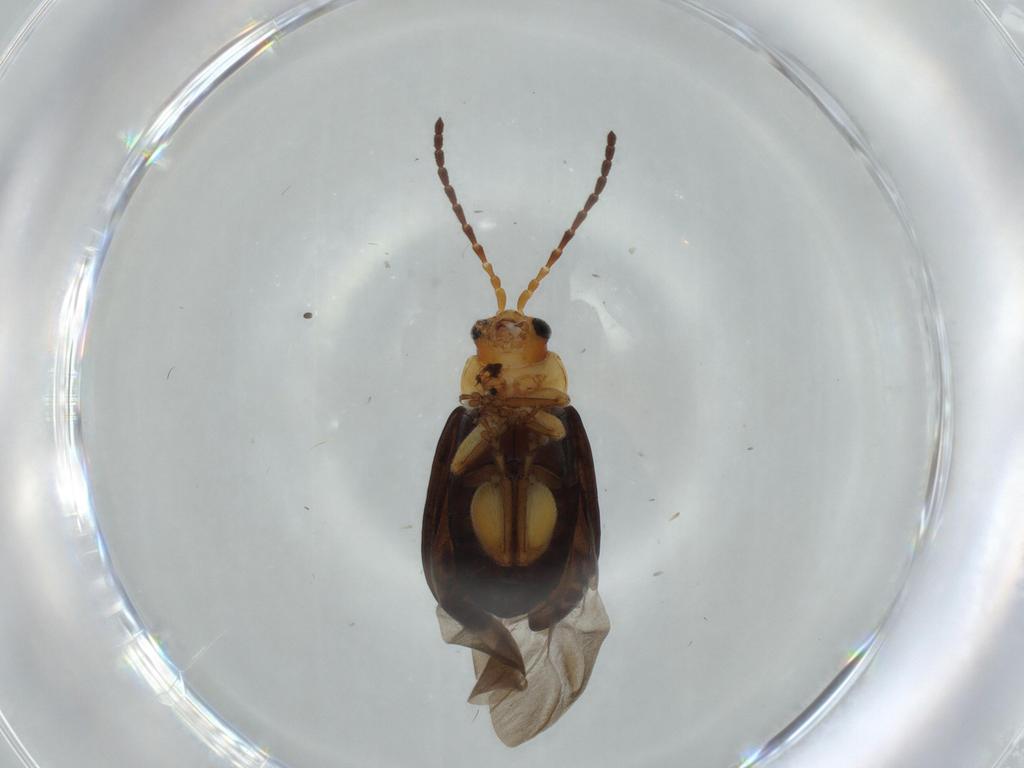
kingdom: Animalia
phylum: Arthropoda
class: Insecta
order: Coleoptera
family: Chrysomelidae
